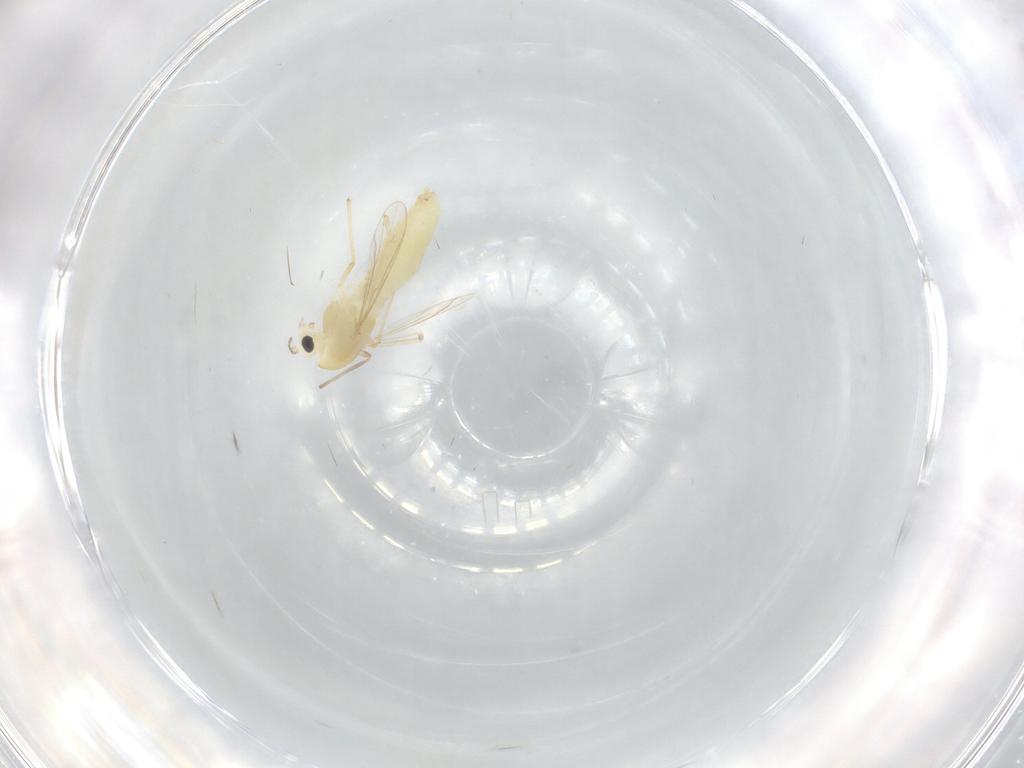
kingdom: Animalia
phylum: Arthropoda
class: Insecta
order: Diptera
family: Chironomidae
